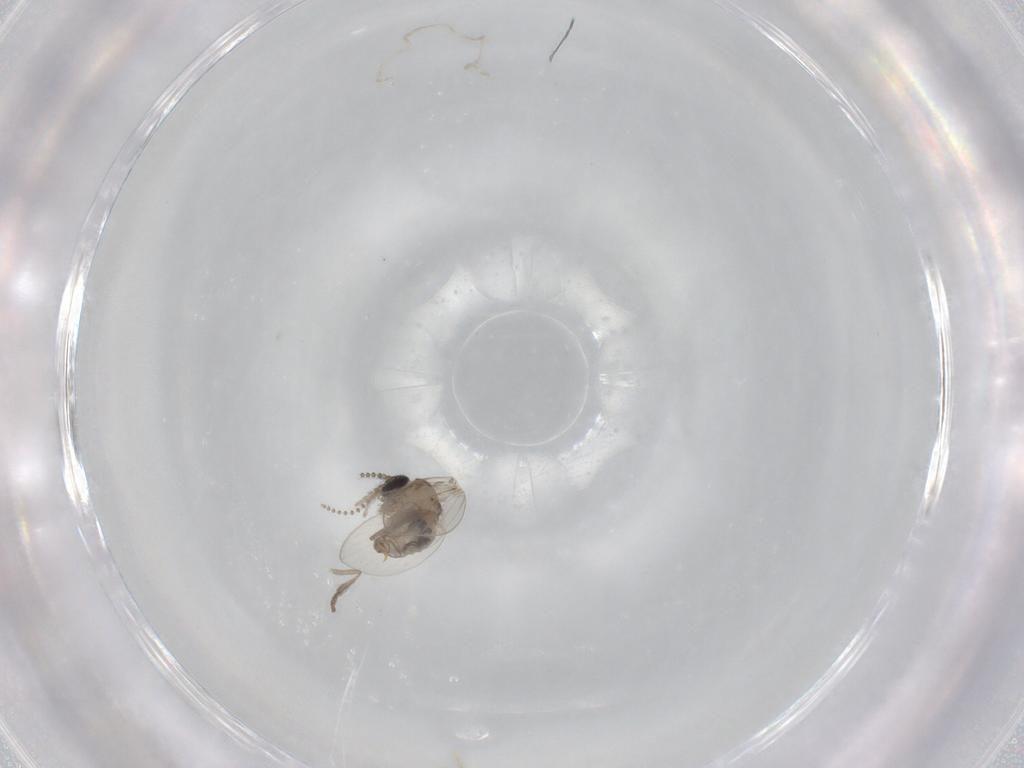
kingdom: Animalia
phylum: Arthropoda
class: Insecta
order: Diptera
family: Psychodidae
